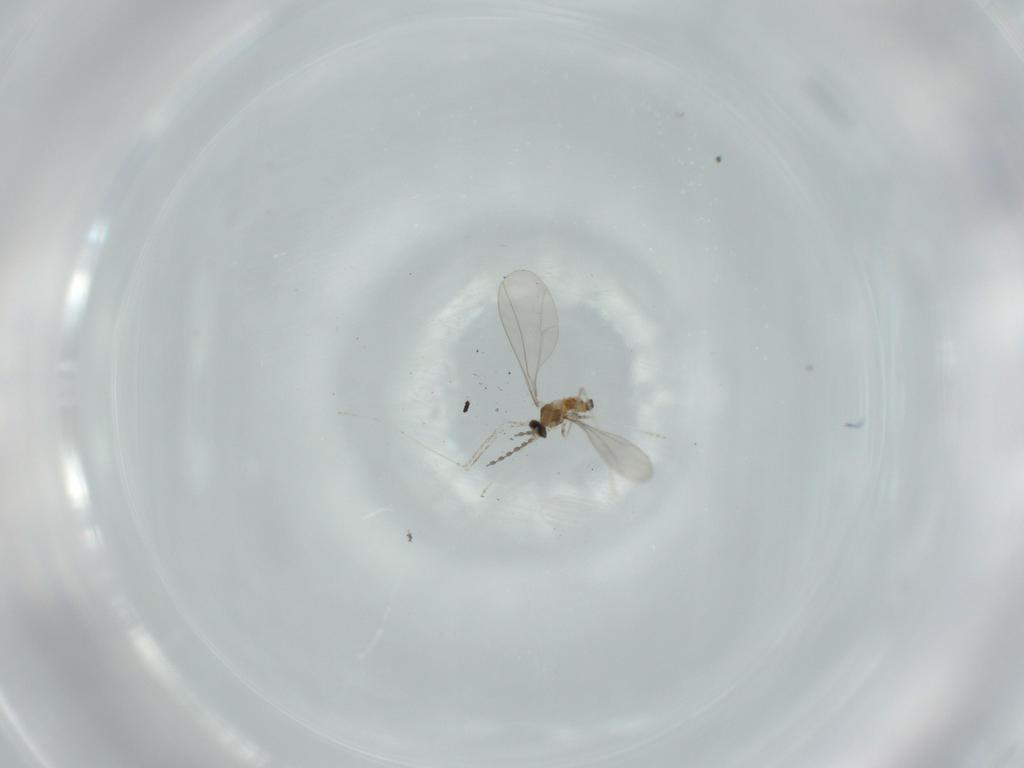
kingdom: Animalia
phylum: Arthropoda
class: Insecta
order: Diptera
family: Cecidomyiidae
